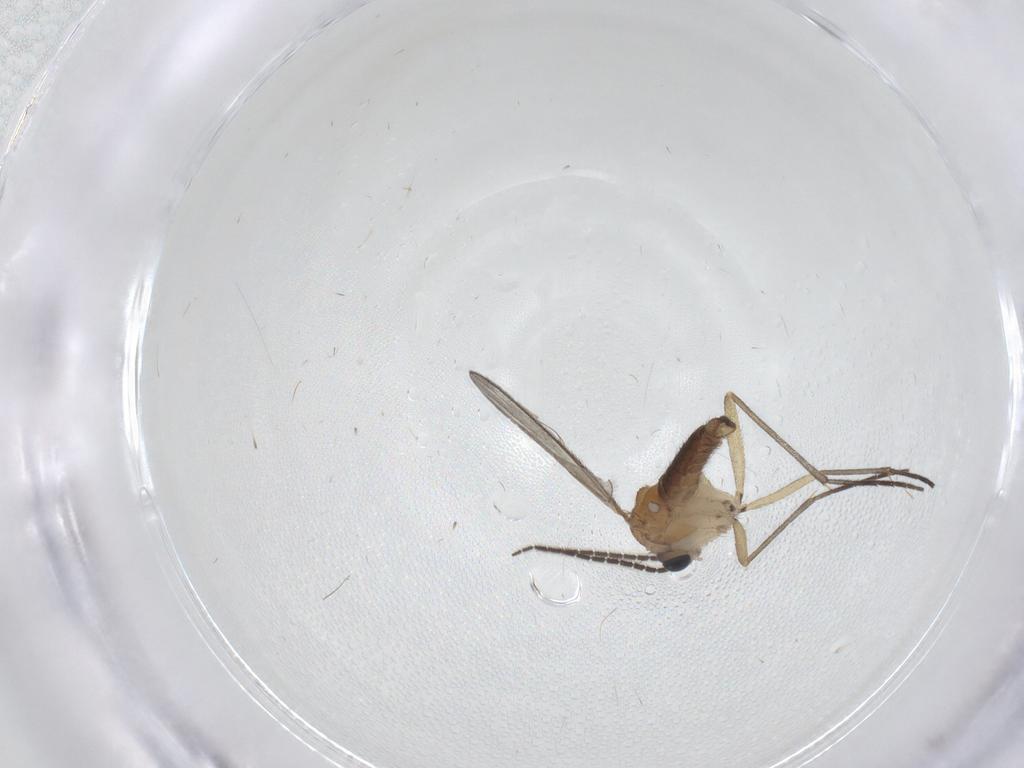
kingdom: Animalia
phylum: Arthropoda
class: Insecta
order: Diptera
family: Sciaridae
